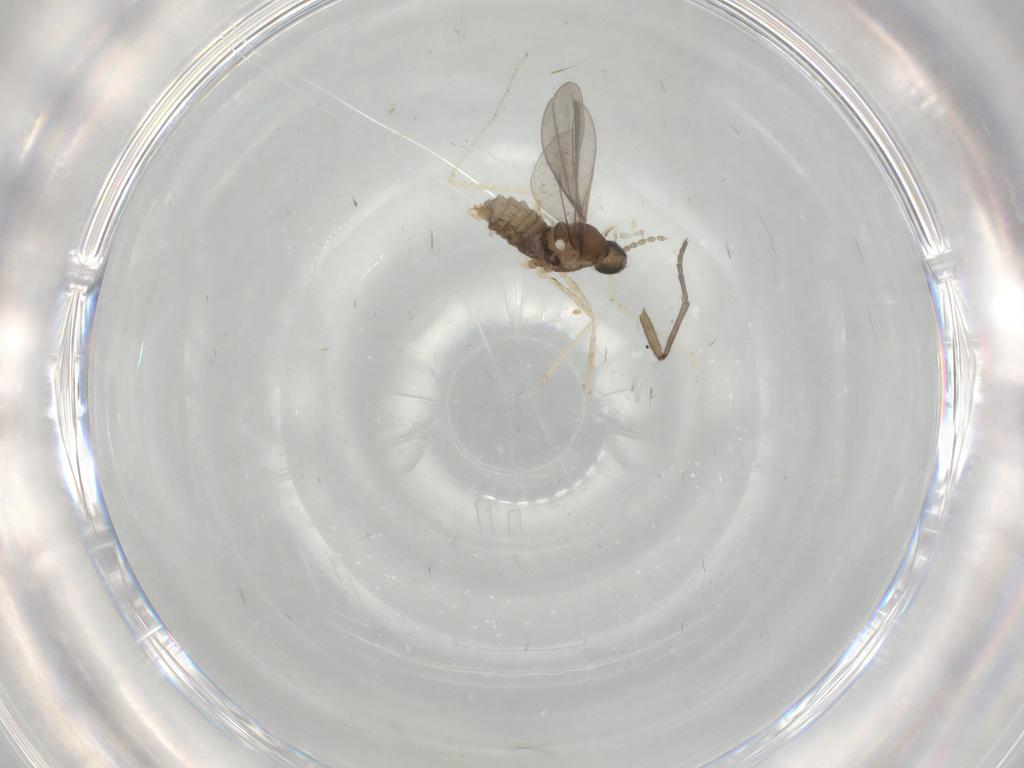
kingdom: Animalia
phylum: Arthropoda
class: Insecta
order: Diptera
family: Cecidomyiidae
